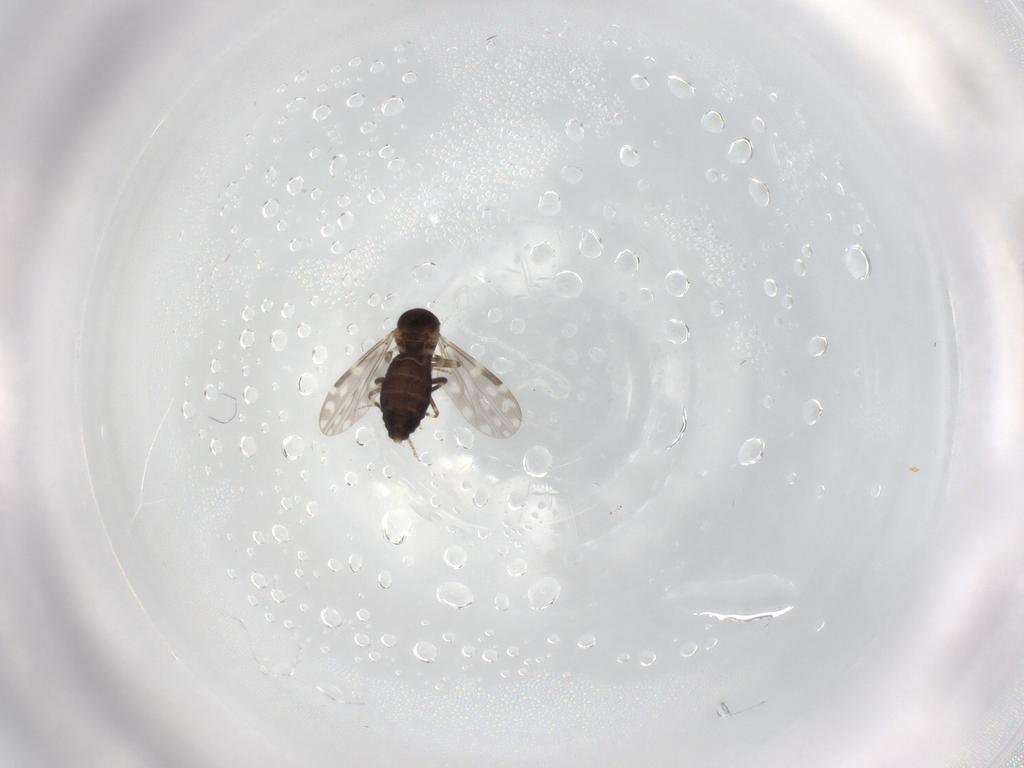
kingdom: Animalia
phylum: Arthropoda
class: Insecta
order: Diptera
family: Ceratopogonidae
